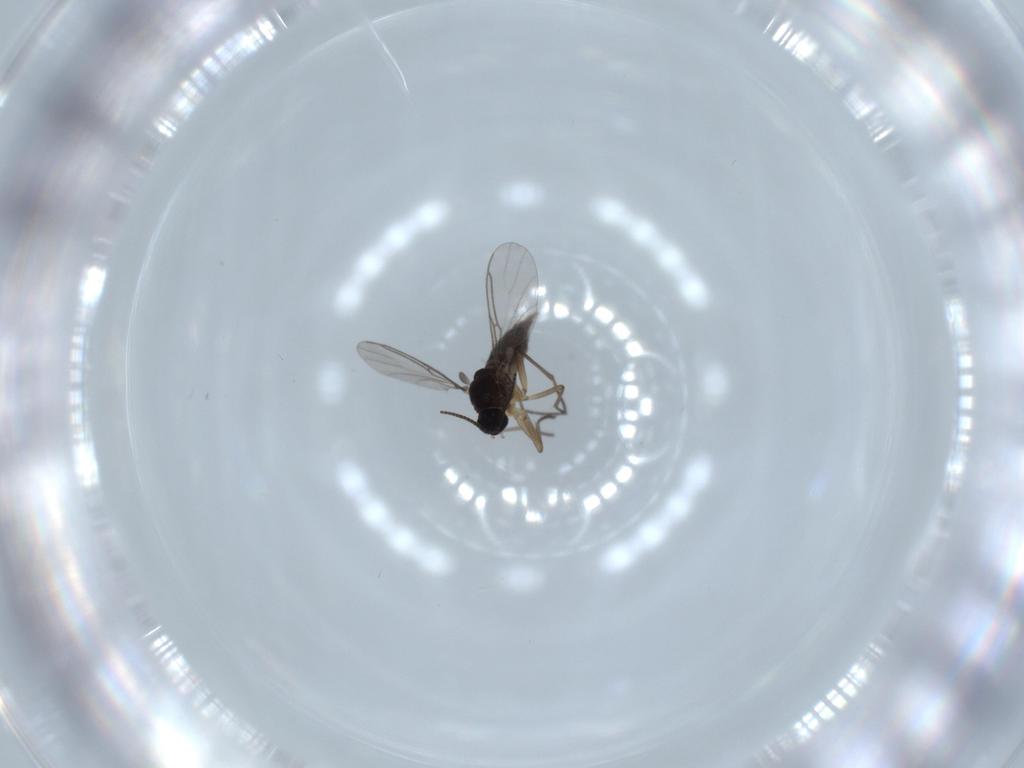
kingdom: Animalia
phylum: Arthropoda
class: Insecta
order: Diptera
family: Sciaridae
